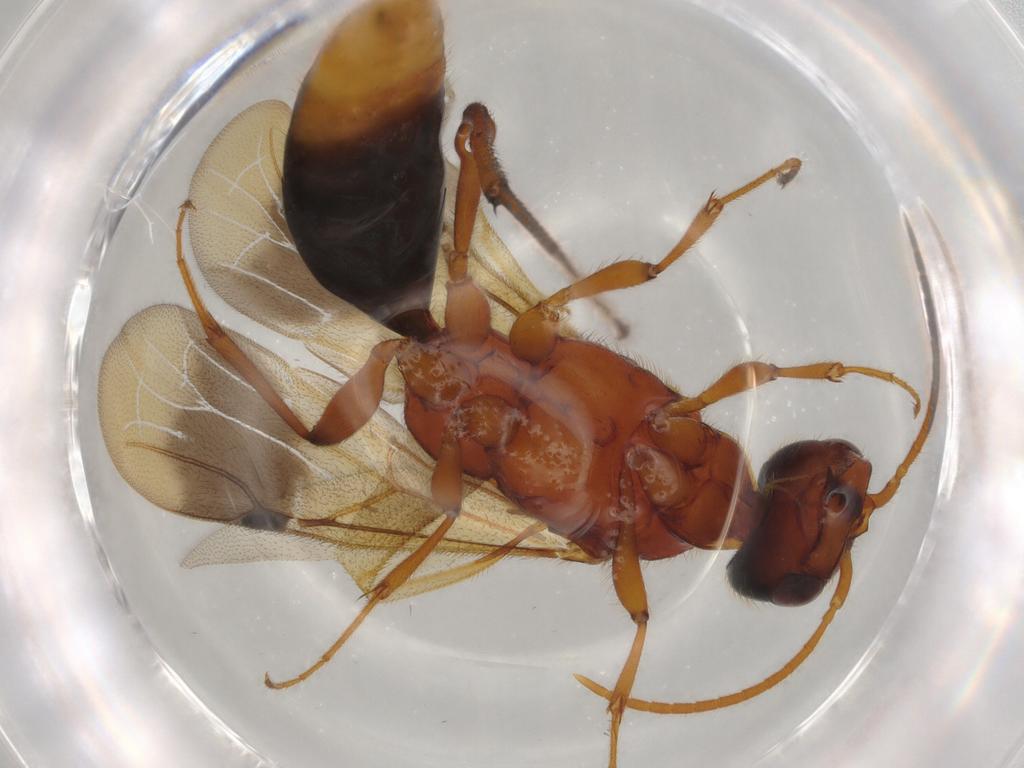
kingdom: Animalia
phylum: Arthropoda
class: Insecta
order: Hymenoptera
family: Bethylidae
